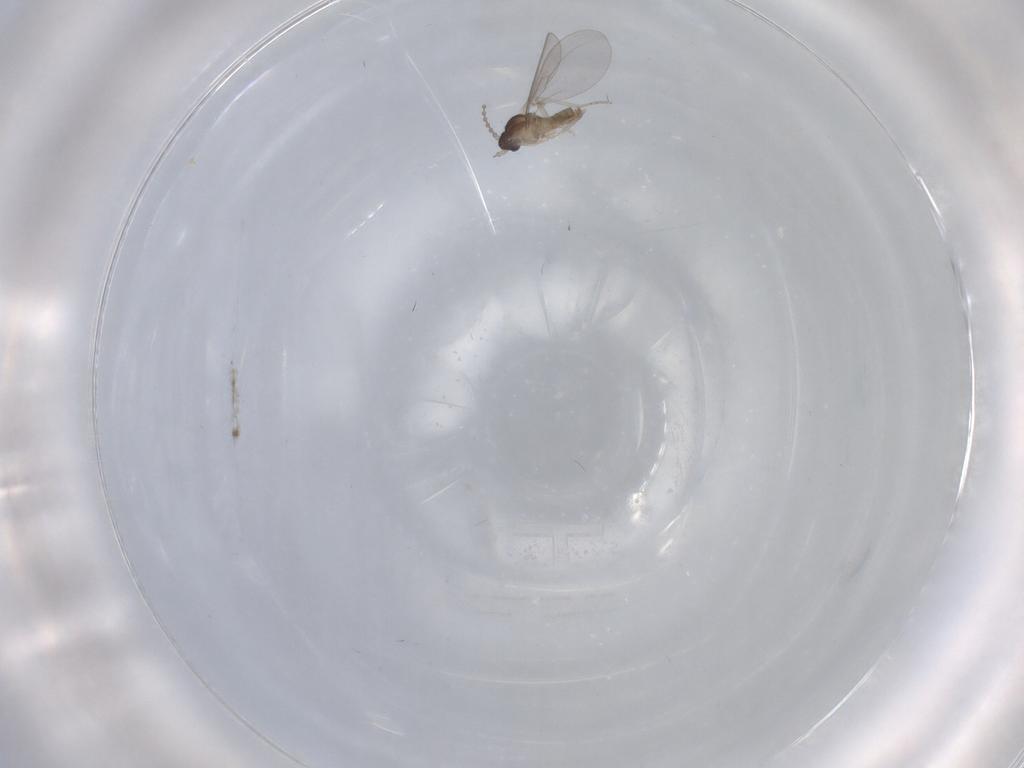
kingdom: Animalia
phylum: Arthropoda
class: Insecta
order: Diptera
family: Cecidomyiidae
